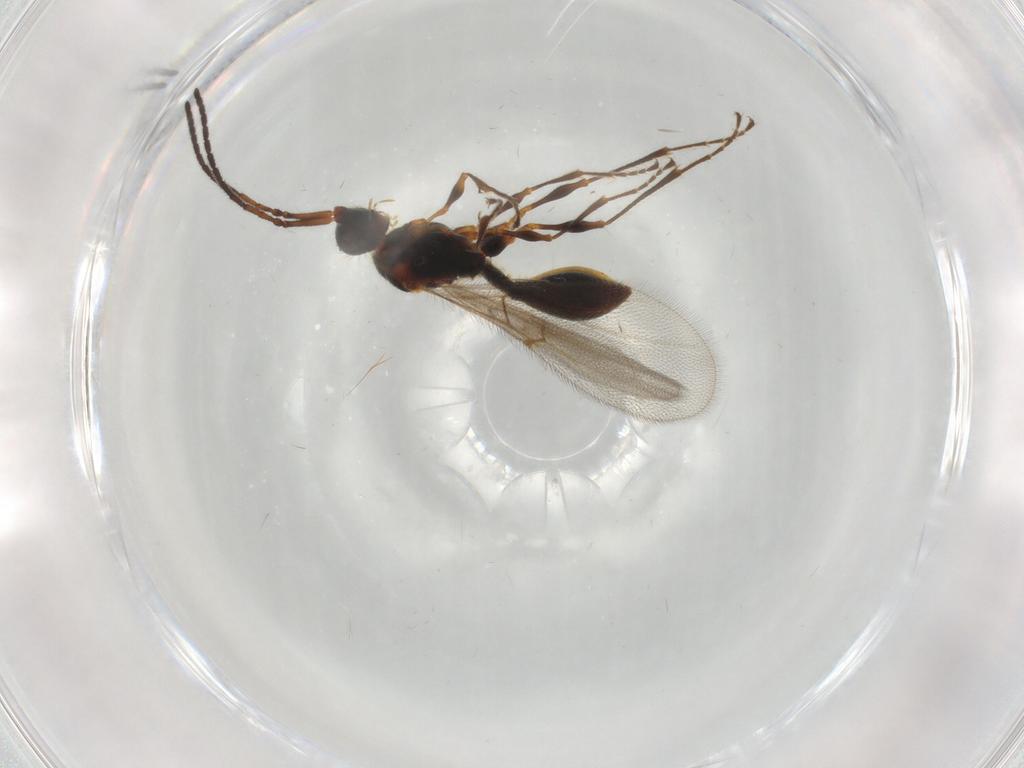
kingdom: Animalia
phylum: Arthropoda
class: Insecta
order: Hymenoptera
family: Diapriidae
